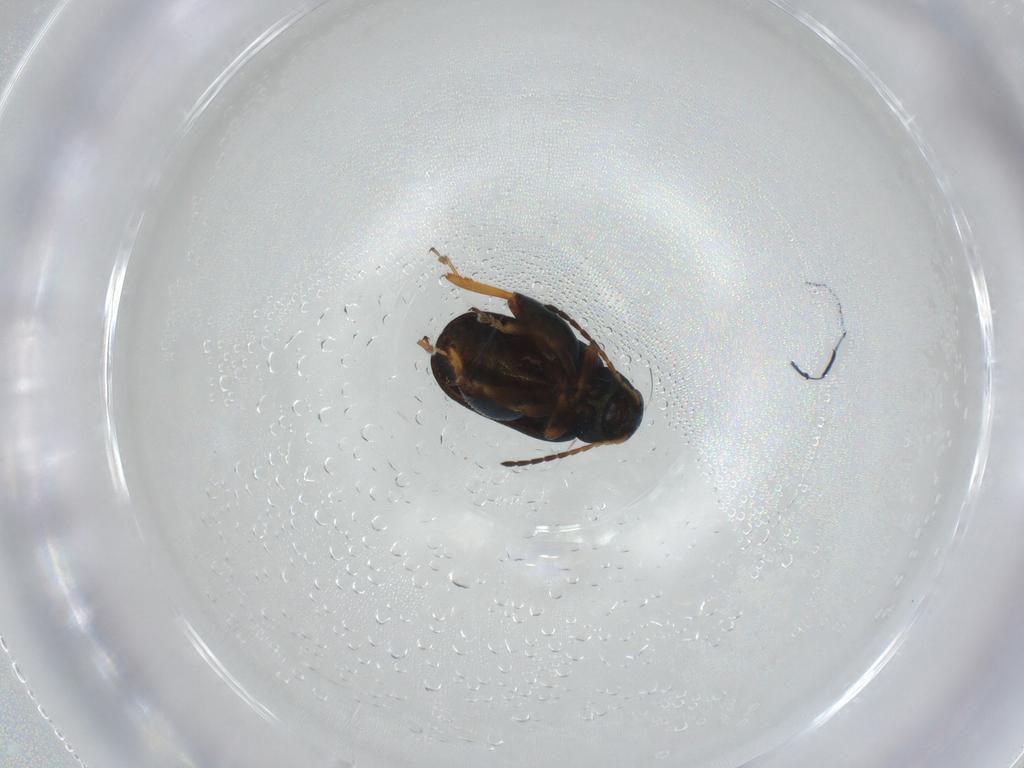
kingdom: Animalia
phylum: Arthropoda
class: Insecta
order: Coleoptera
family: Chrysomelidae
